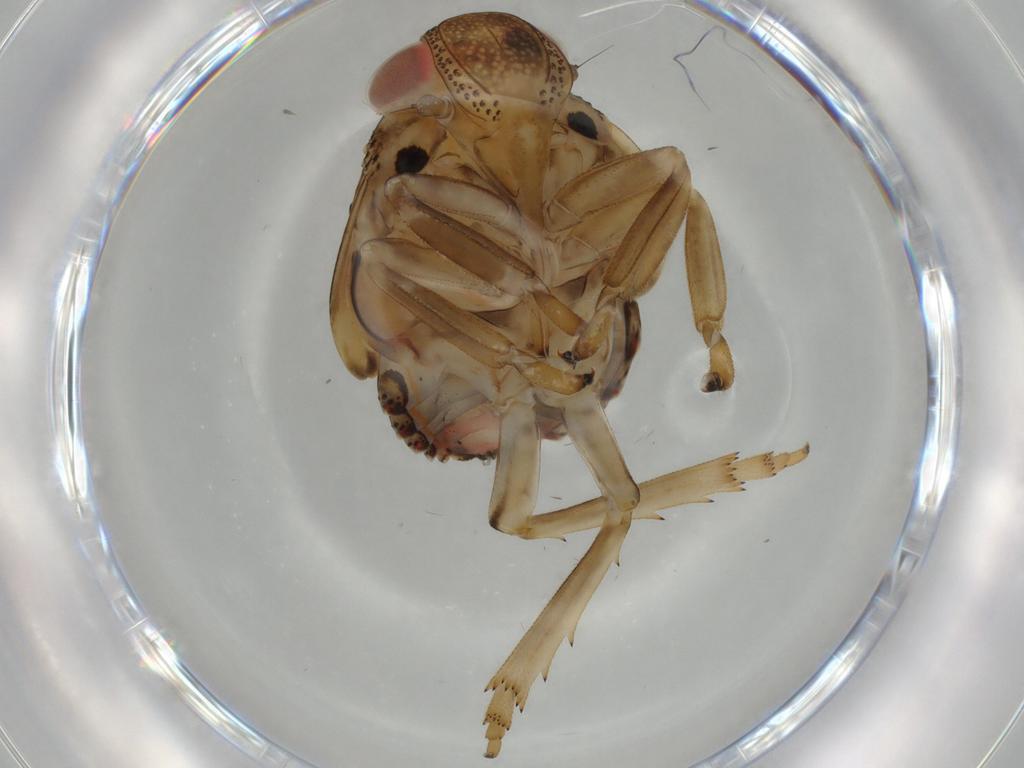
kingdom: Animalia
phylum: Arthropoda
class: Insecta
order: Hemiptera
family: Issidae
